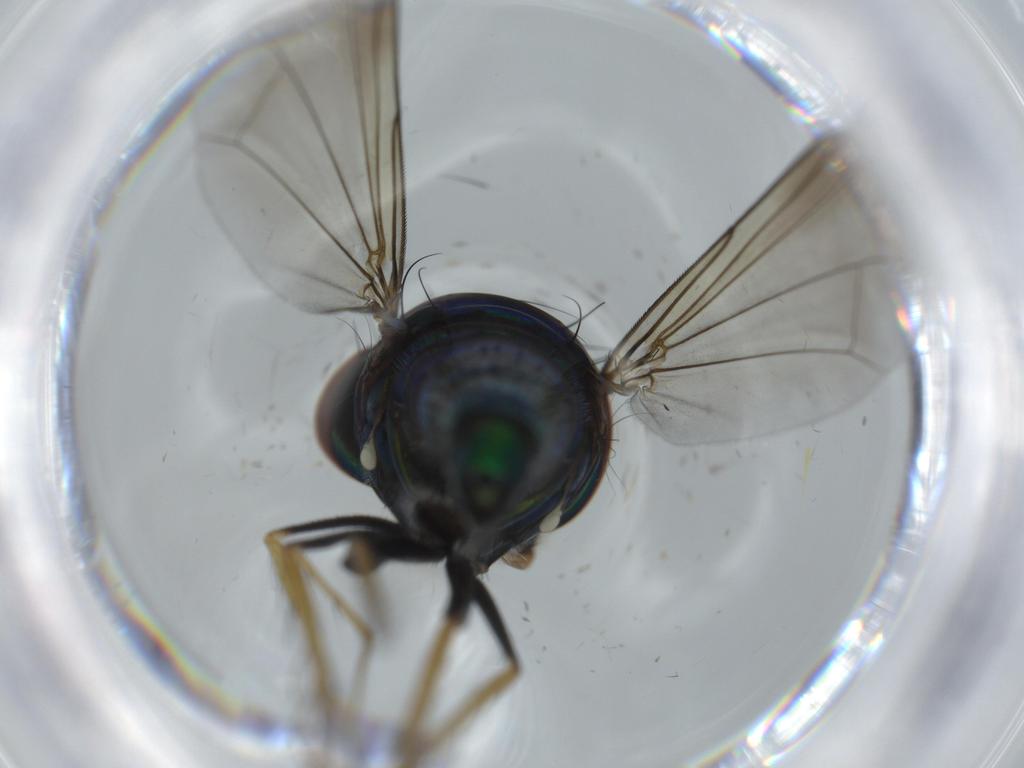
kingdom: Animalia
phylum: Arthropoda
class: Insecta
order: Diptera
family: Dolichopodidae
